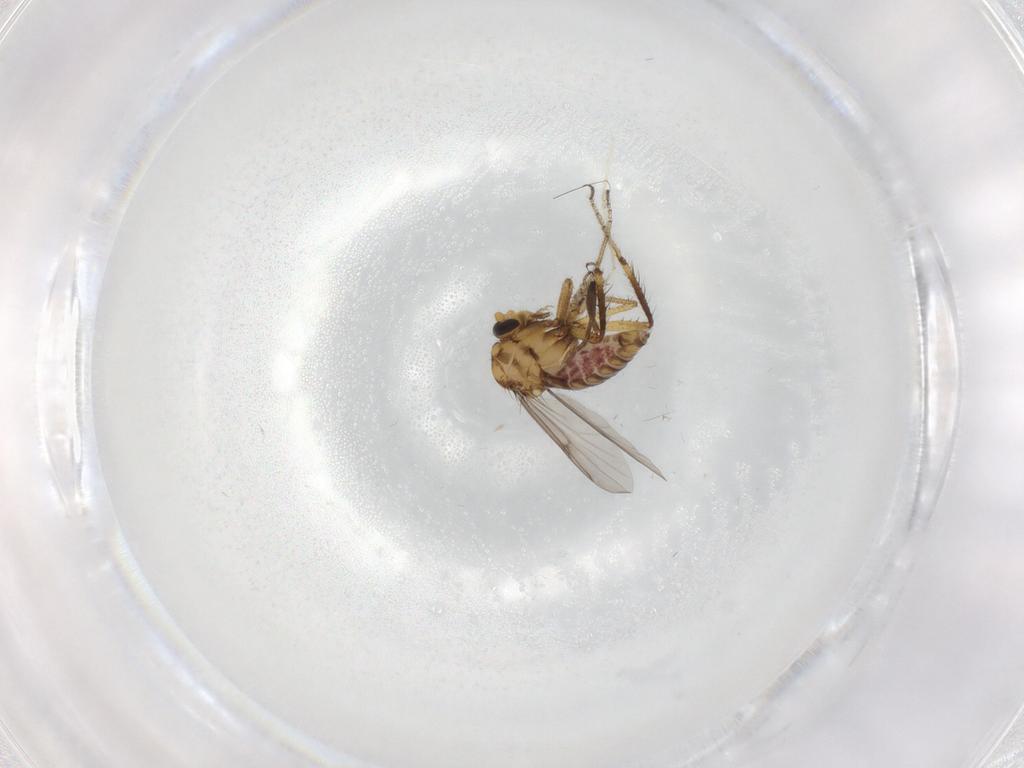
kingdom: Animalia
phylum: Arthropoda
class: Insecta
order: Diptera
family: Ceratopogonidae
